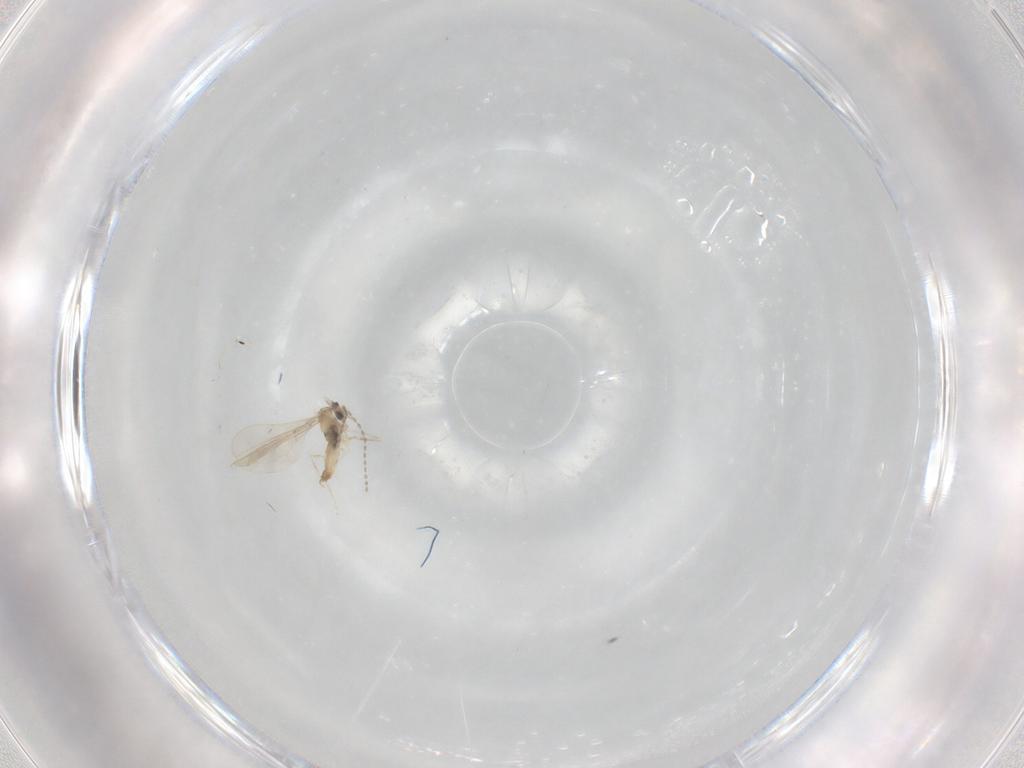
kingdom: Animalia
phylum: Arthropoda
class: Insecta
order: Diptera
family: Cecidomyiidae
